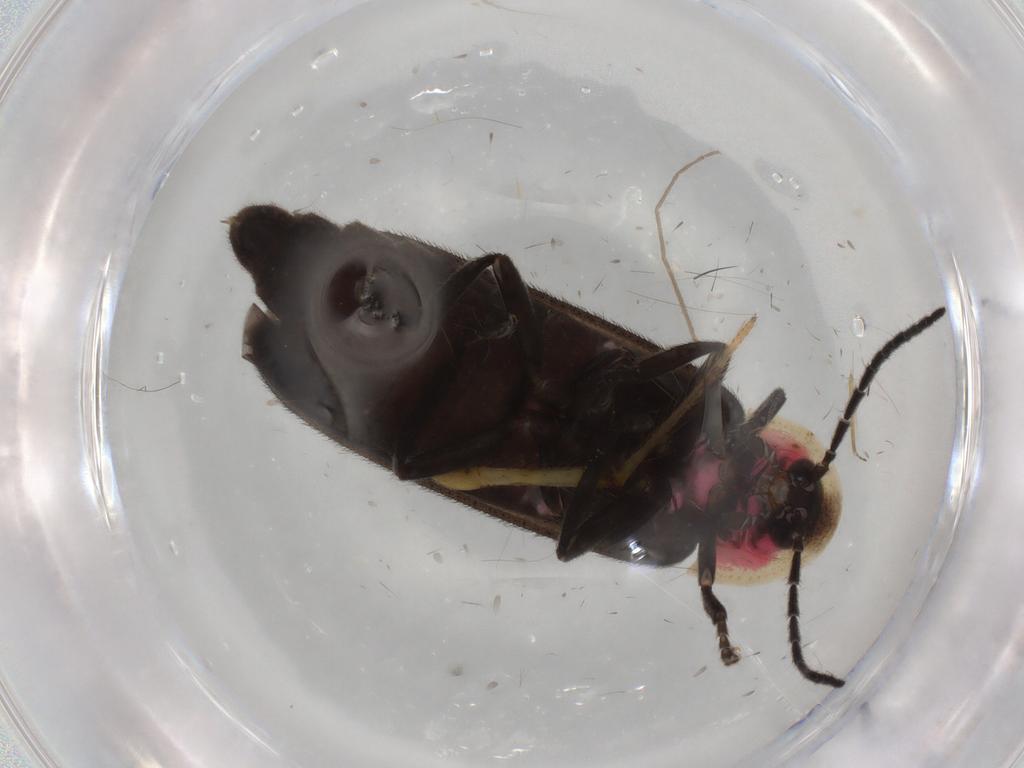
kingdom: Animalia
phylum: Arthropoda
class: Insecta
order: Coleoptera
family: Lampyridae
